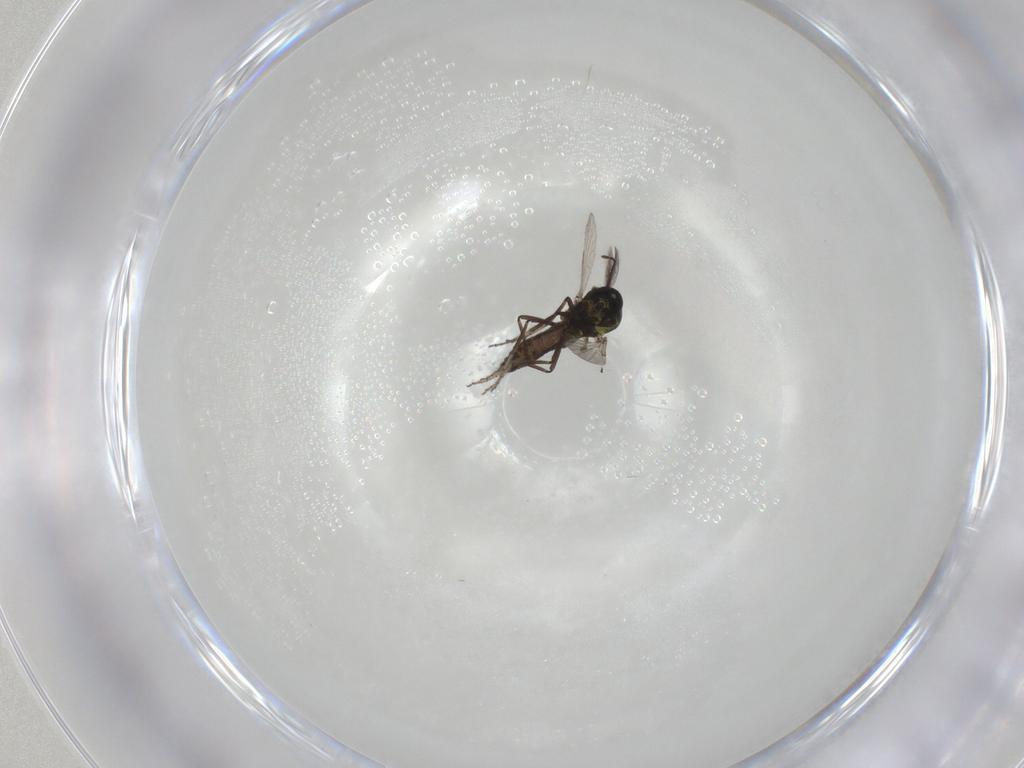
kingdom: Animalia
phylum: Arthropoda
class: Insecta
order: Diptera
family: Ceratopogonidae
